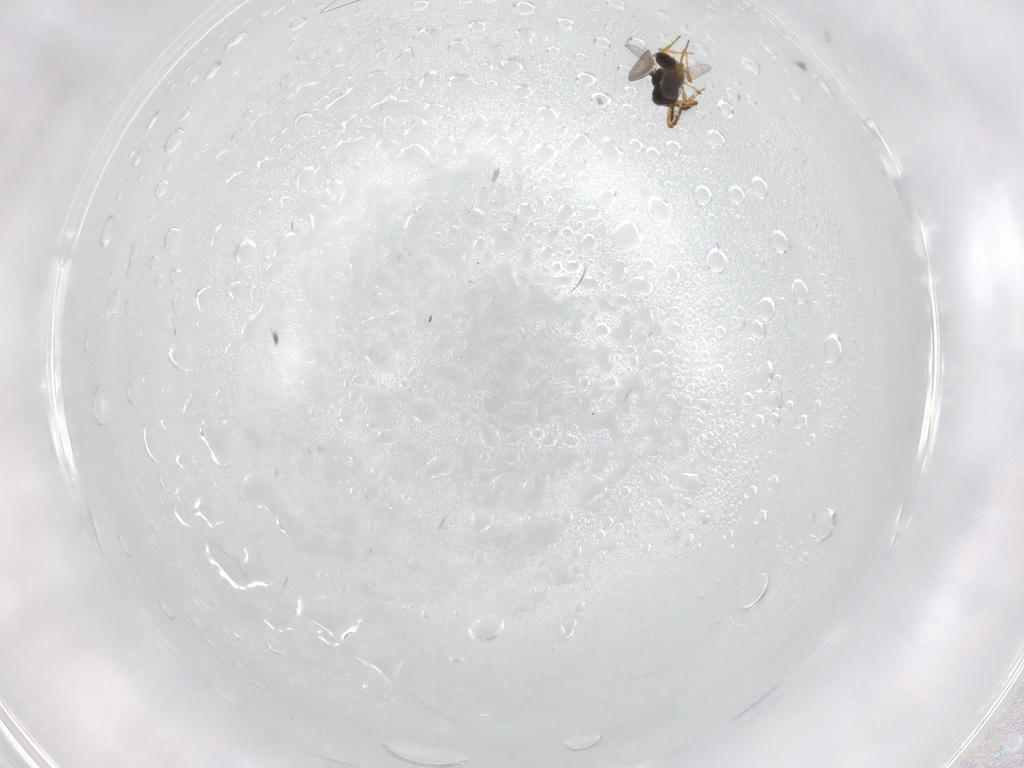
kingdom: Animalia
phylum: Arthropoda
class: Insecta
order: Hymenoptera
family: Platygastridae
